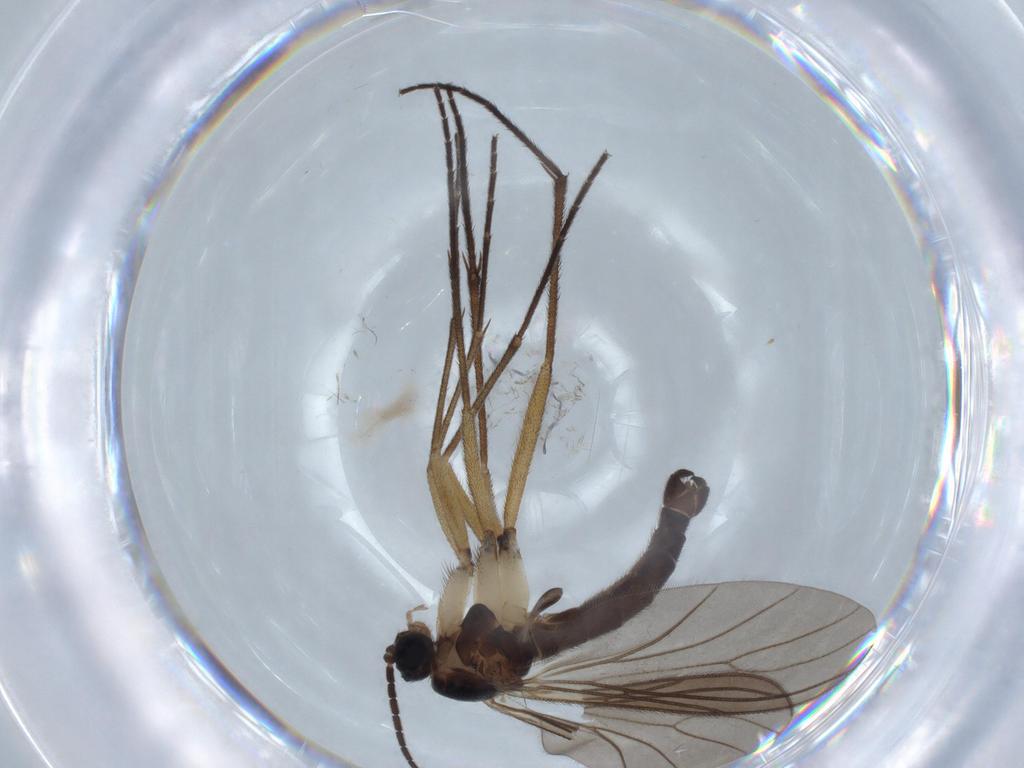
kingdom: Animalia
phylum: Arthropoda
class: Insecta
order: Diptera
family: Sciaridae
